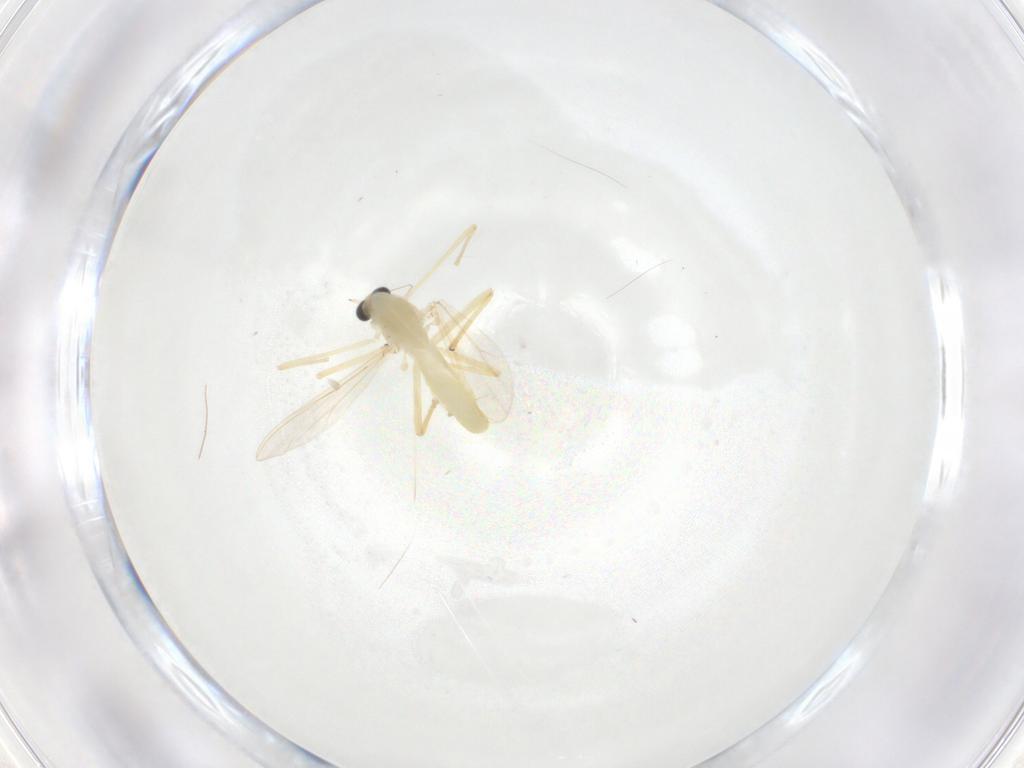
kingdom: Animalia
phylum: Arthropoda
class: Insecta
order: Diptera
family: Chironomidae
